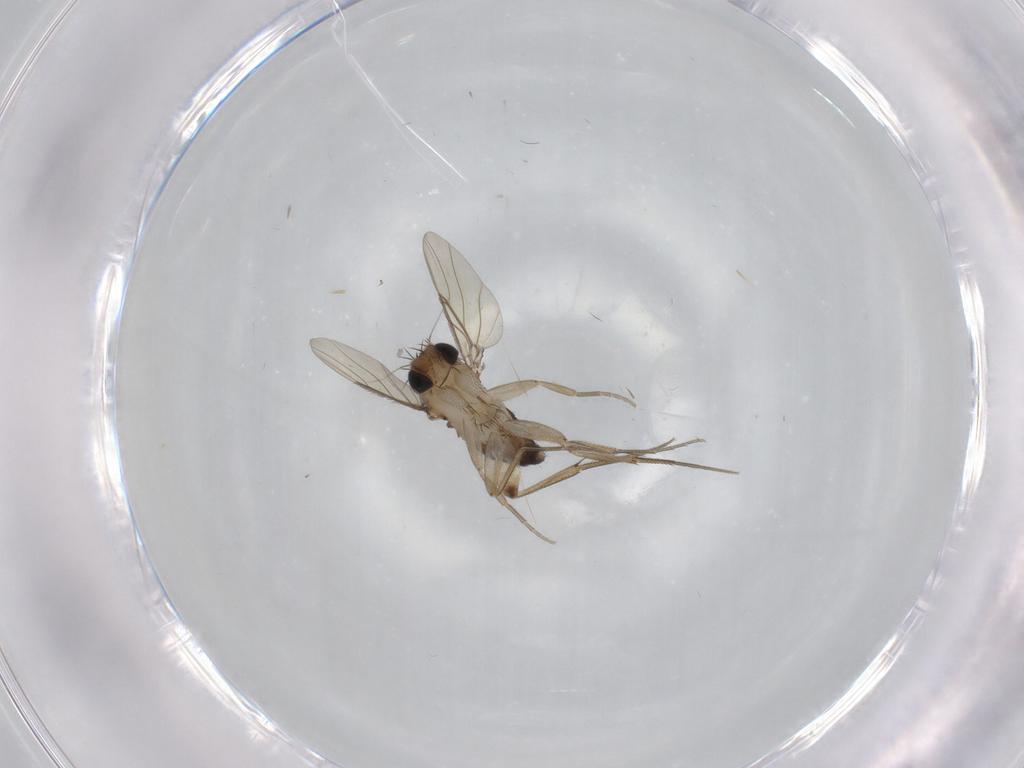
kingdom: Animalia
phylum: Arthropoda
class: Insecta
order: Diptera
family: Phoridae
